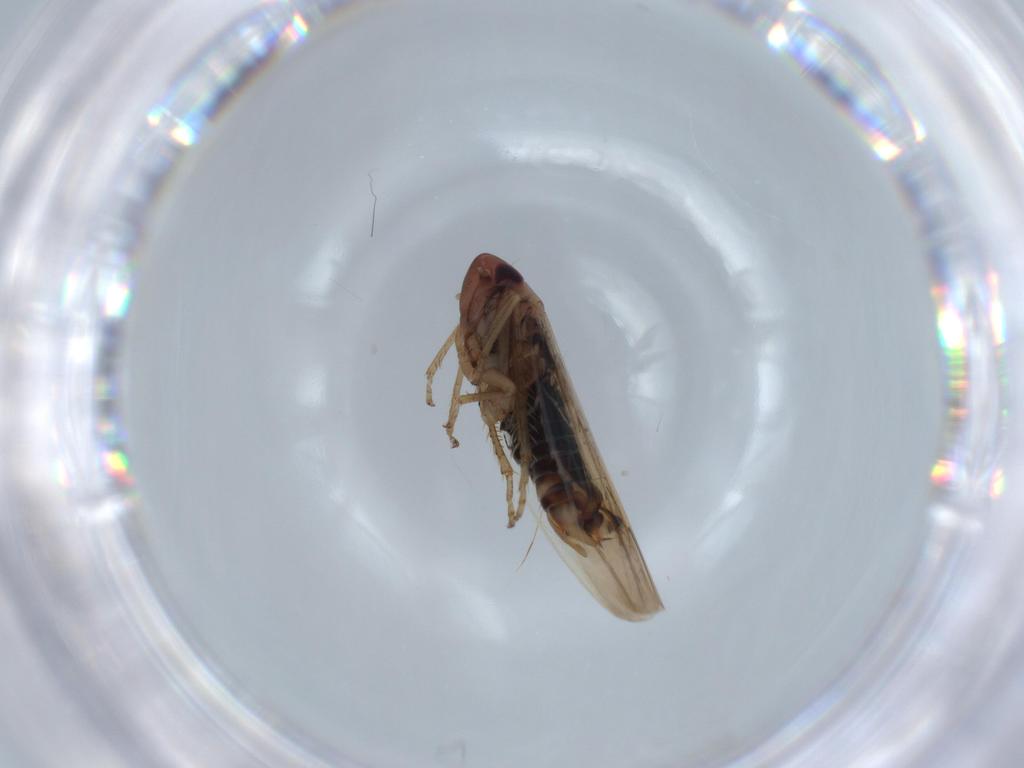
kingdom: Animalia
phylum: Arthropoda
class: Insecta
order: Hemiptera
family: Cicadellidae
